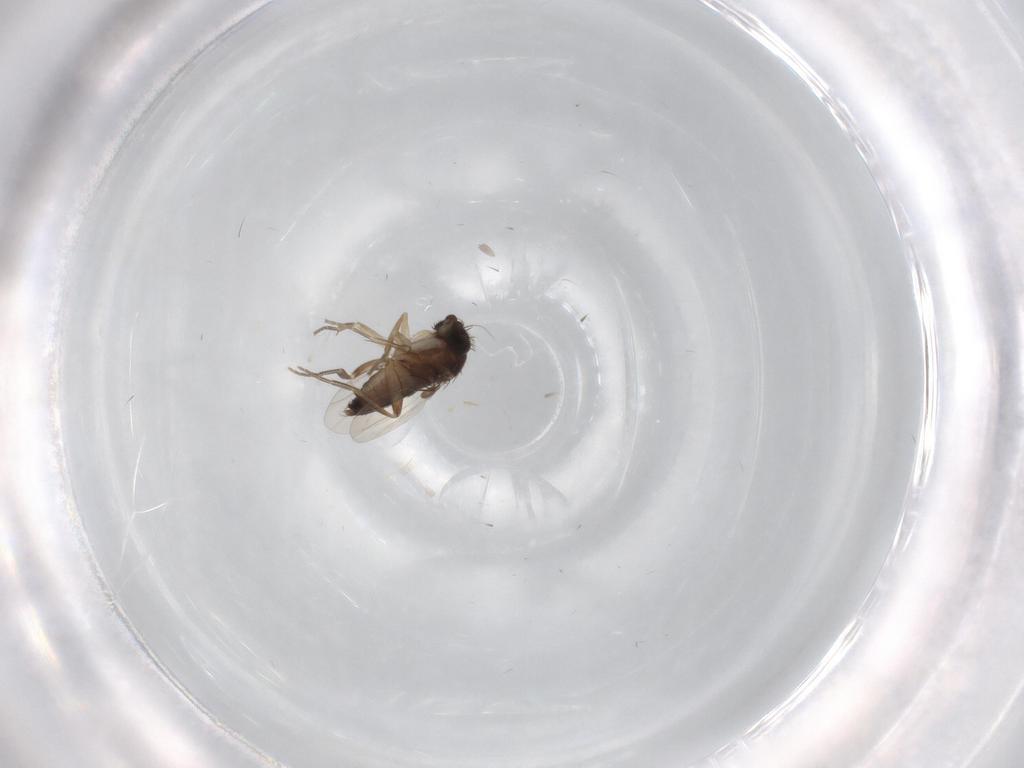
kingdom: Animalia
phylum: Arthropoda
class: Insecta
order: Diptera
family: Sciaridae
